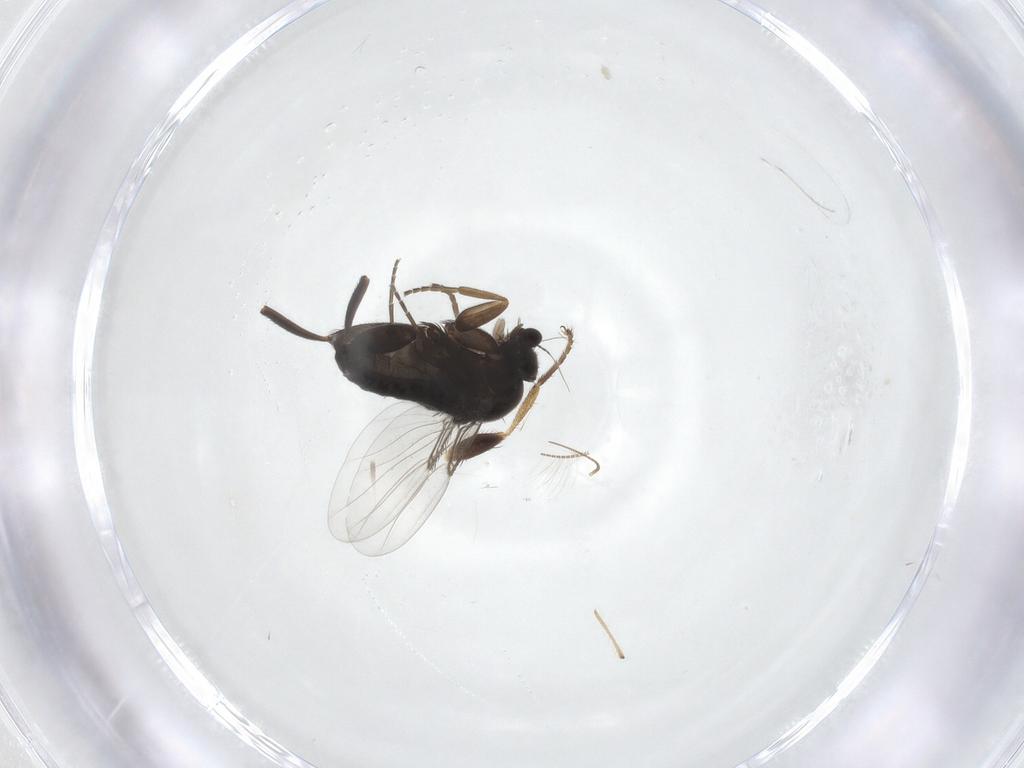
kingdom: Animalia
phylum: Arthropoda
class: Insecta
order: Diptera
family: Heleomyzidae
